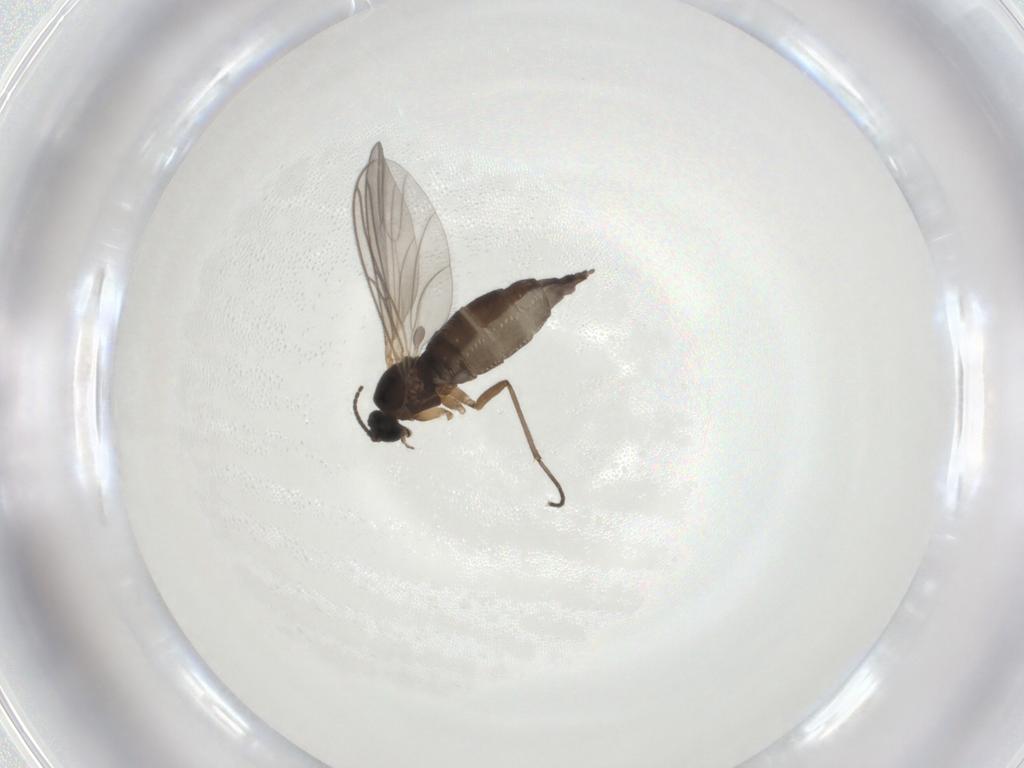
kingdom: Animalia
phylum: Arthropoda
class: Insecta
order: Diptera
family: Sciaridae
